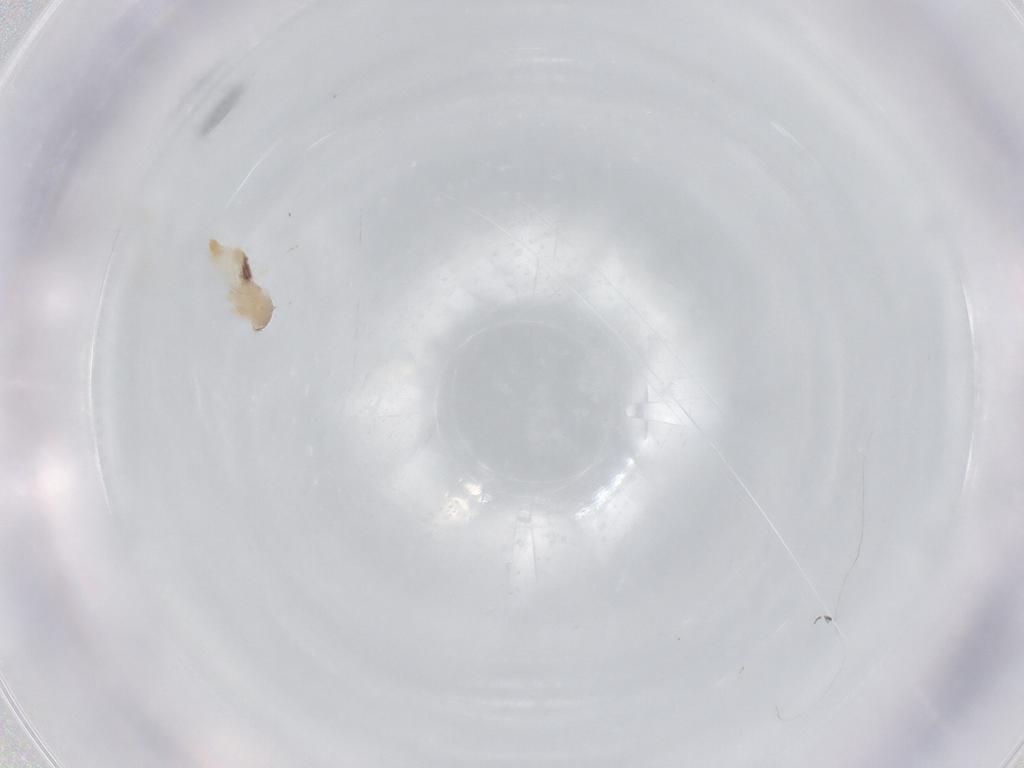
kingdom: Animalia
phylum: Arthropoda
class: Insecta
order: Diptera
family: Cecidomyiidae
